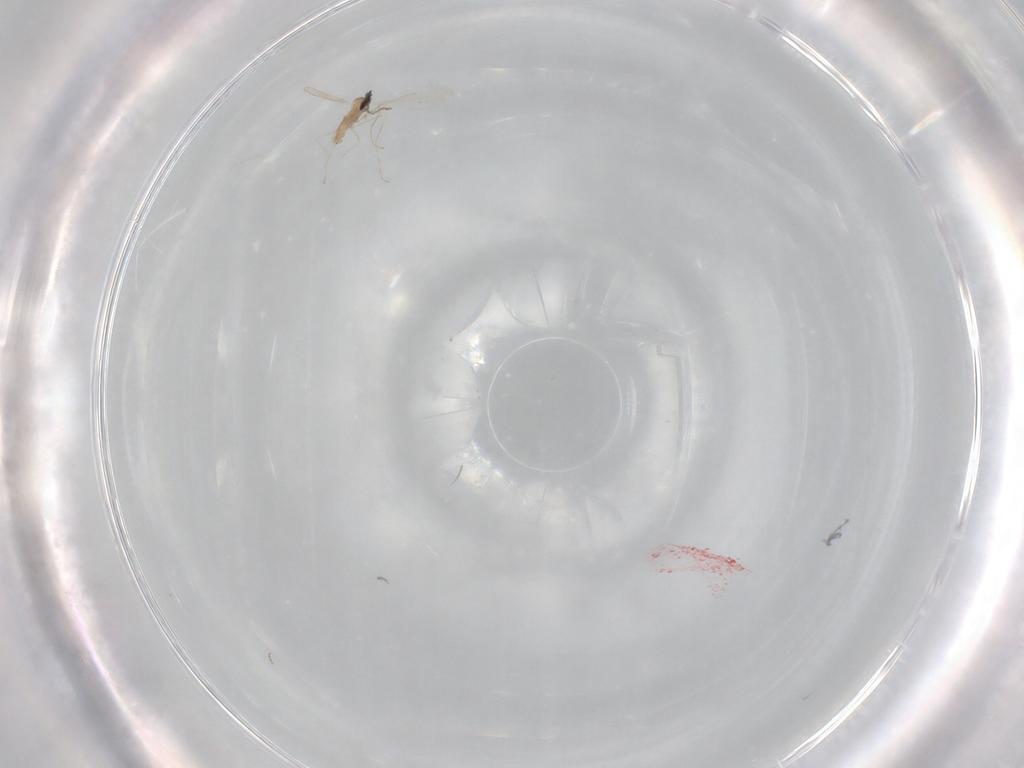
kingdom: Animalia
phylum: Arthropoda
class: Insecta
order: Diptera
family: Cecidomyiidae
